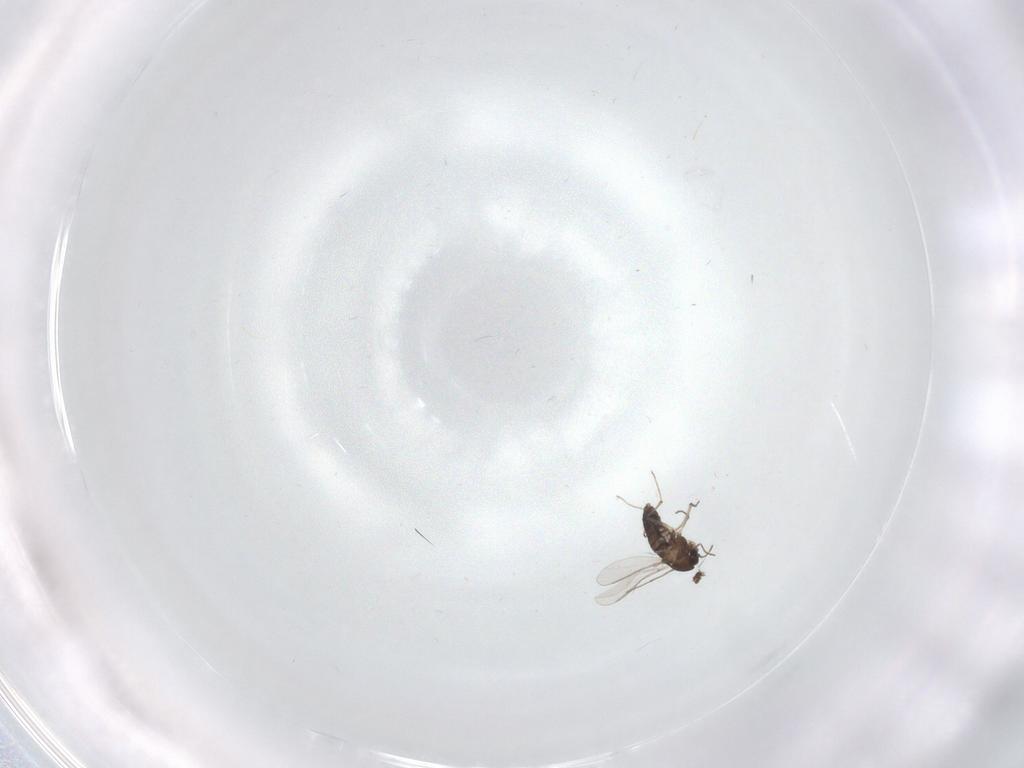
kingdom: Animalia
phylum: Arthropoda
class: Insecta
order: Diptera
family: Chironomidae
